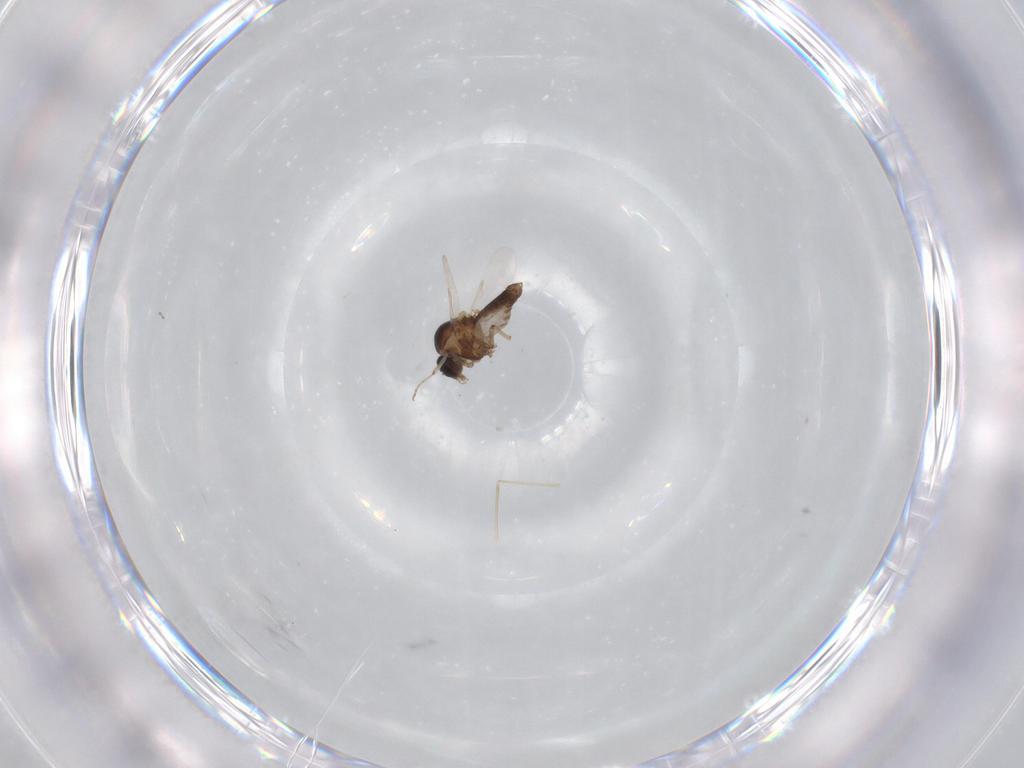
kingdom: Animalia
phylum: Arthropoda
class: Insecta
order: Diptera
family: Ceratopogonidae
